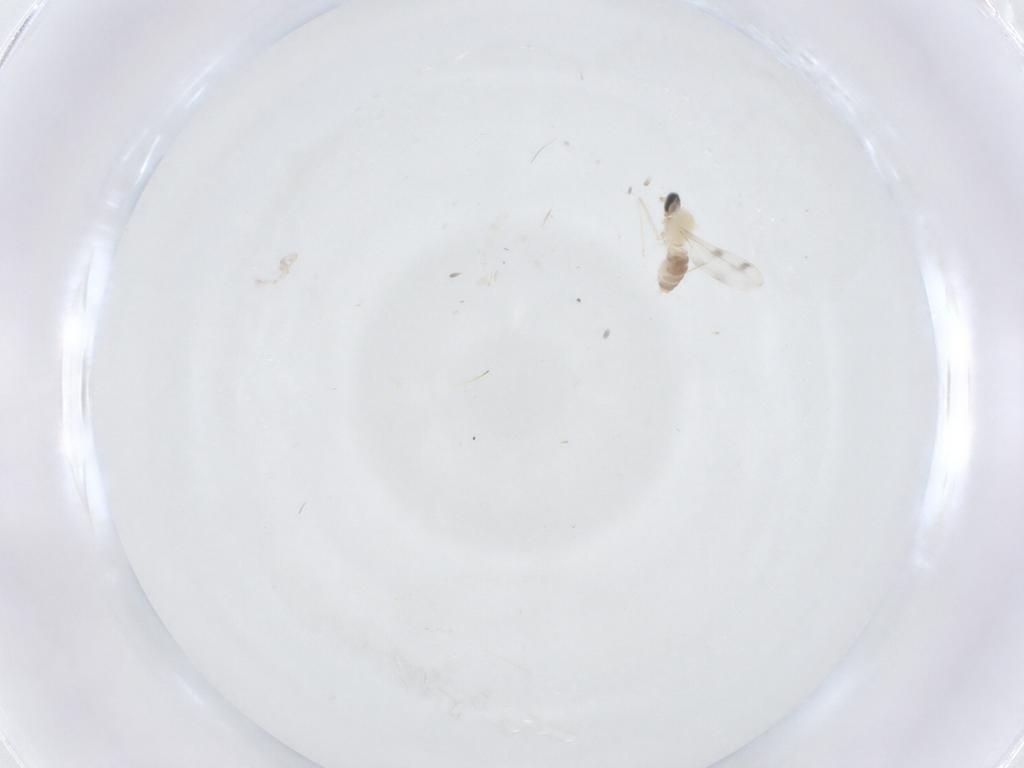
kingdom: Animalia
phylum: Arthropoda
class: Insecta
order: Diptera
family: Cecidomyiidae
